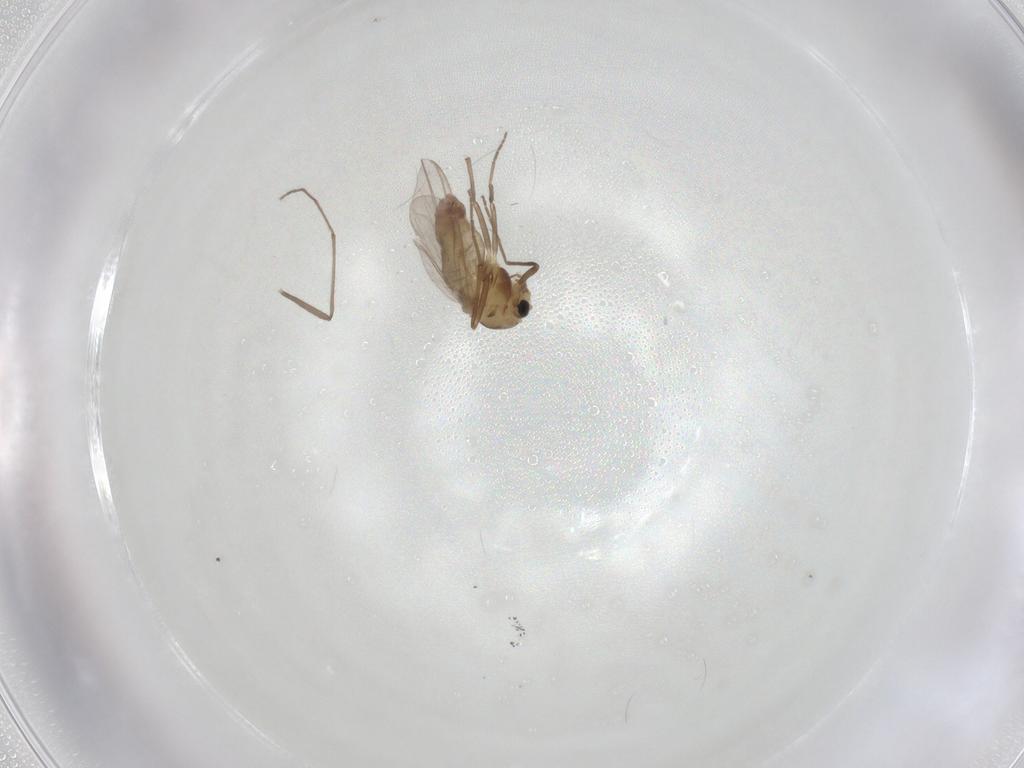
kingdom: Animalia
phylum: Arthropoda
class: Insecta
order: Diptera
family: Chironomidae
